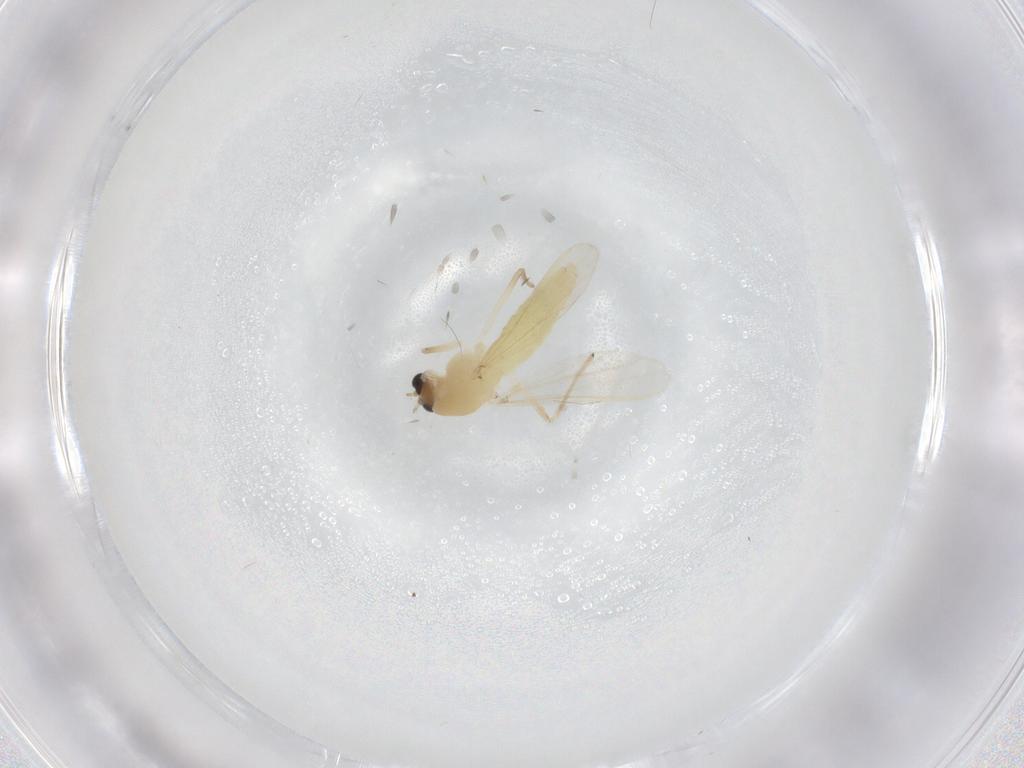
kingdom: Animalia
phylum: Arthropoda
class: Insecta
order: Diptera
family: Chironomidae
